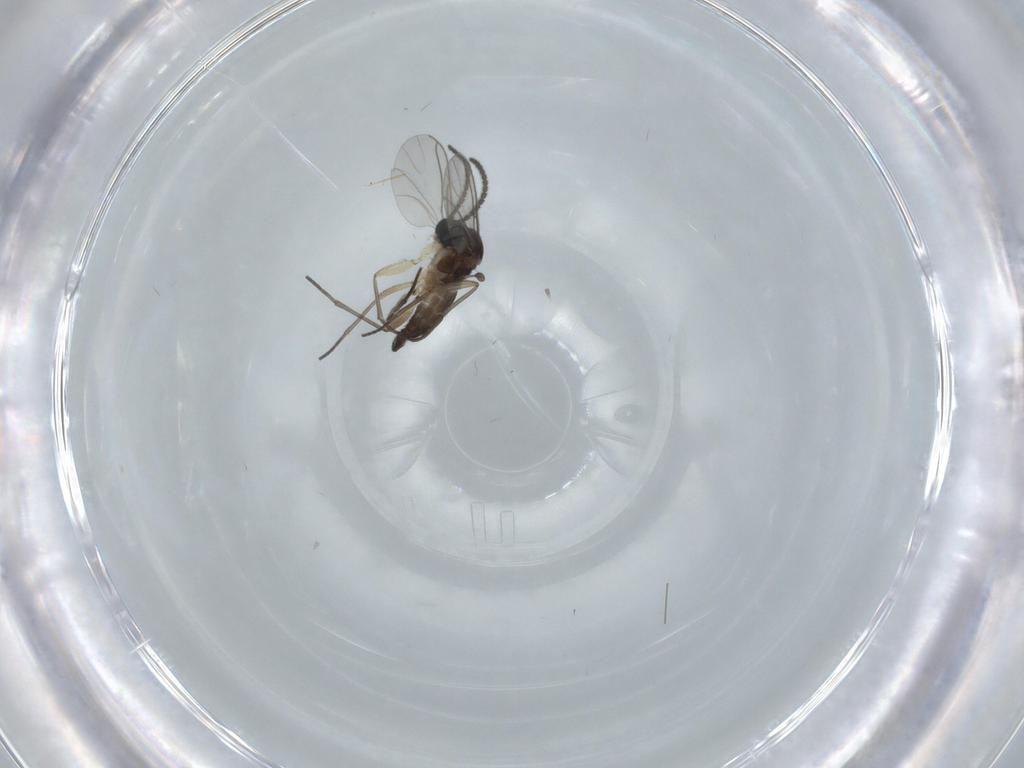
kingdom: Animalia
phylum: Arthropoda
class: Insecta
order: Diptera
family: Sciaridae
